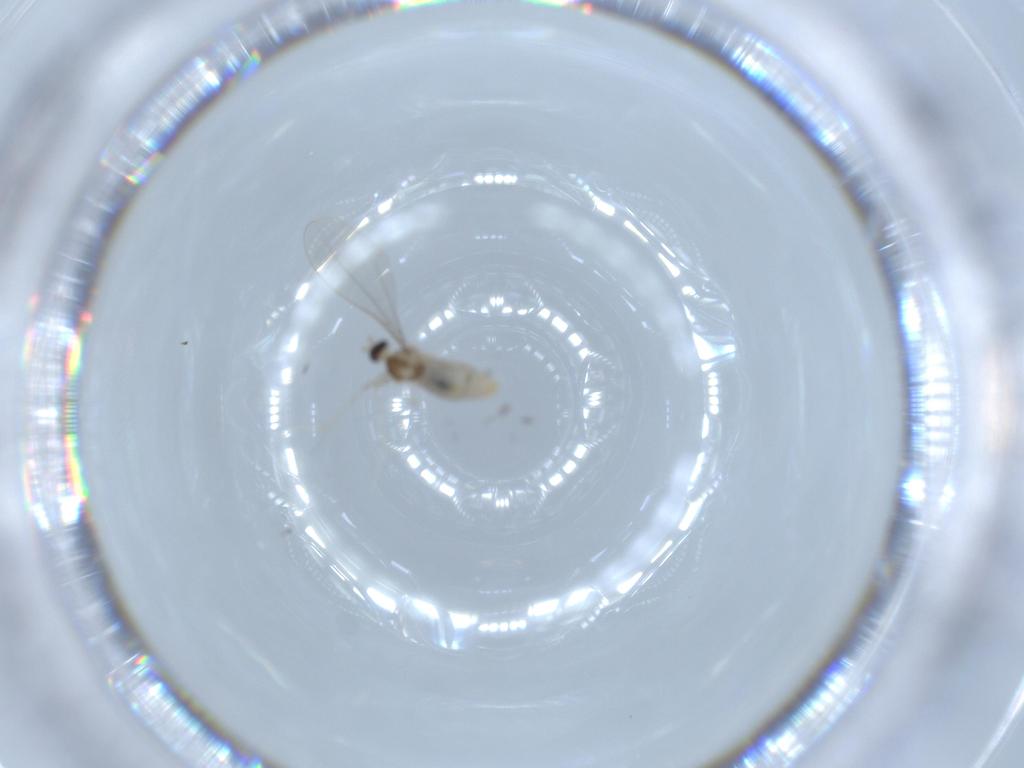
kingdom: Animalia
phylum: Arthropoda
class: Insecta
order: Diptera
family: Cecidomyiidae
